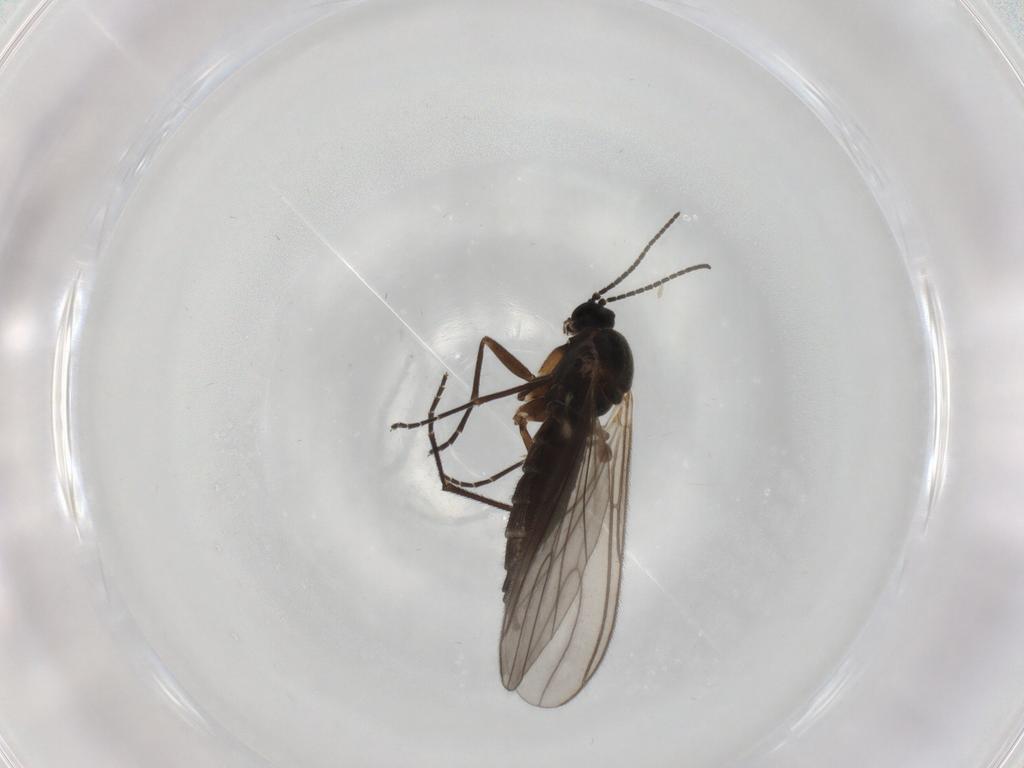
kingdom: Animalia
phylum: Arthropoda
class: Insecta
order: Diptera
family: Sciaridae
